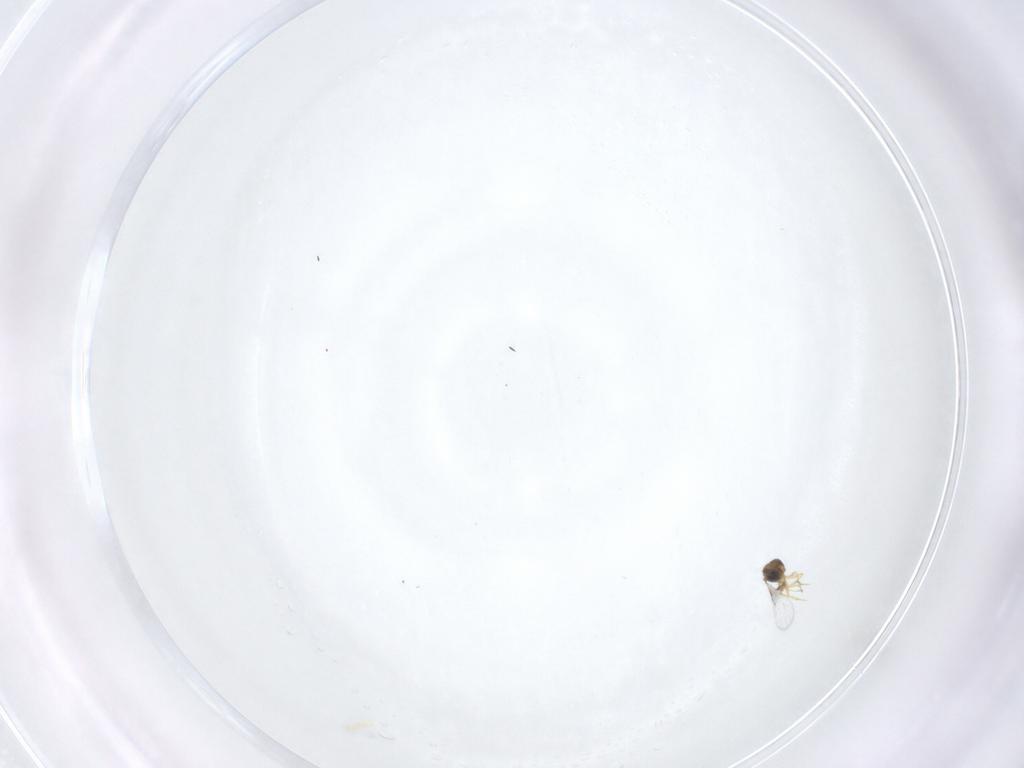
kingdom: Animalia
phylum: Arthropoda
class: Insecta
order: Hymenoptera
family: Trichogrammatidae
